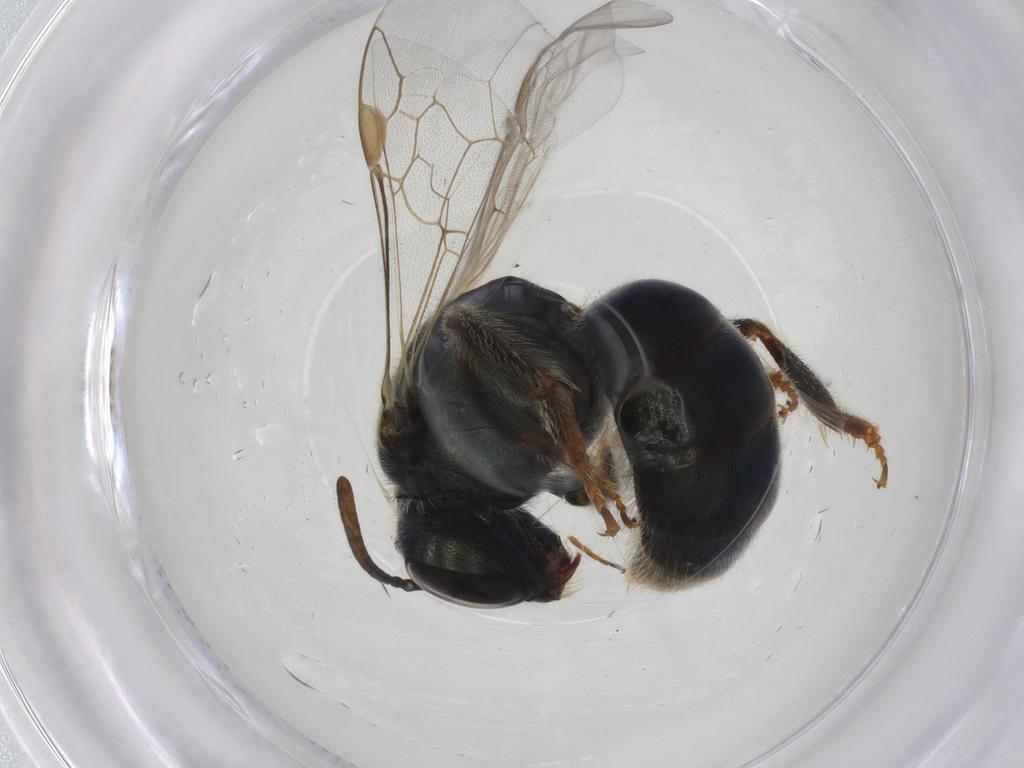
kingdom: Animalia
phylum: Arthropoda
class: Insecta
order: Hymenoptera
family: Halictidae
